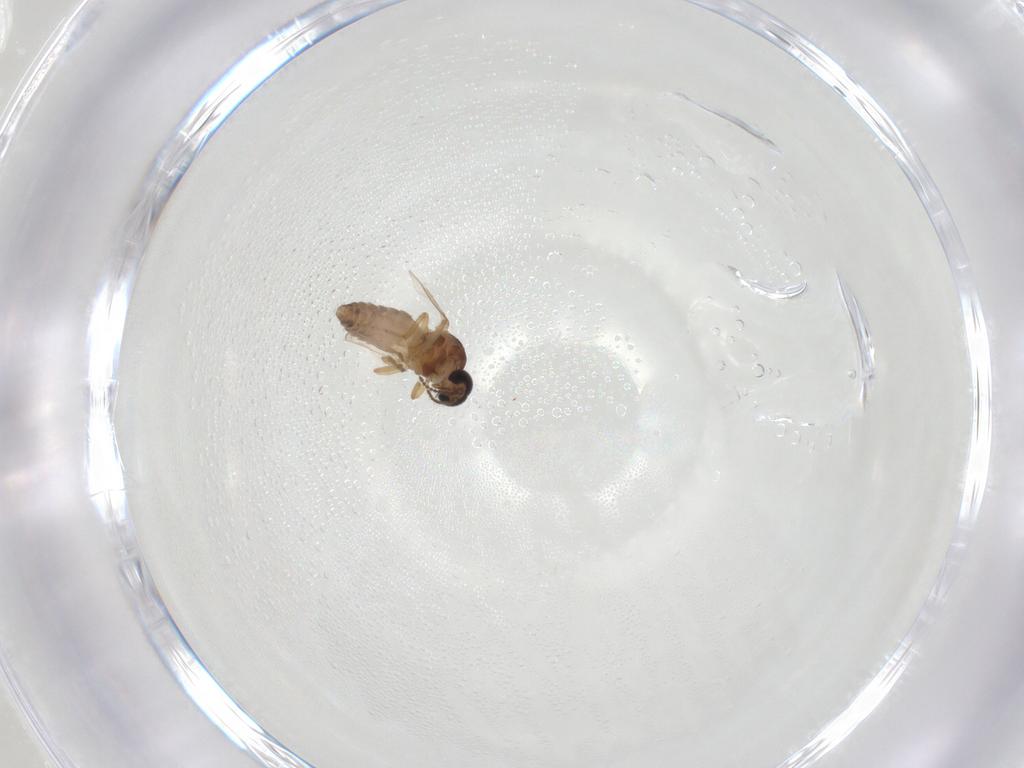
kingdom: Animalia
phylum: Arthropoda
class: Insecta
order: Diptera
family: Ceratopogonidae
